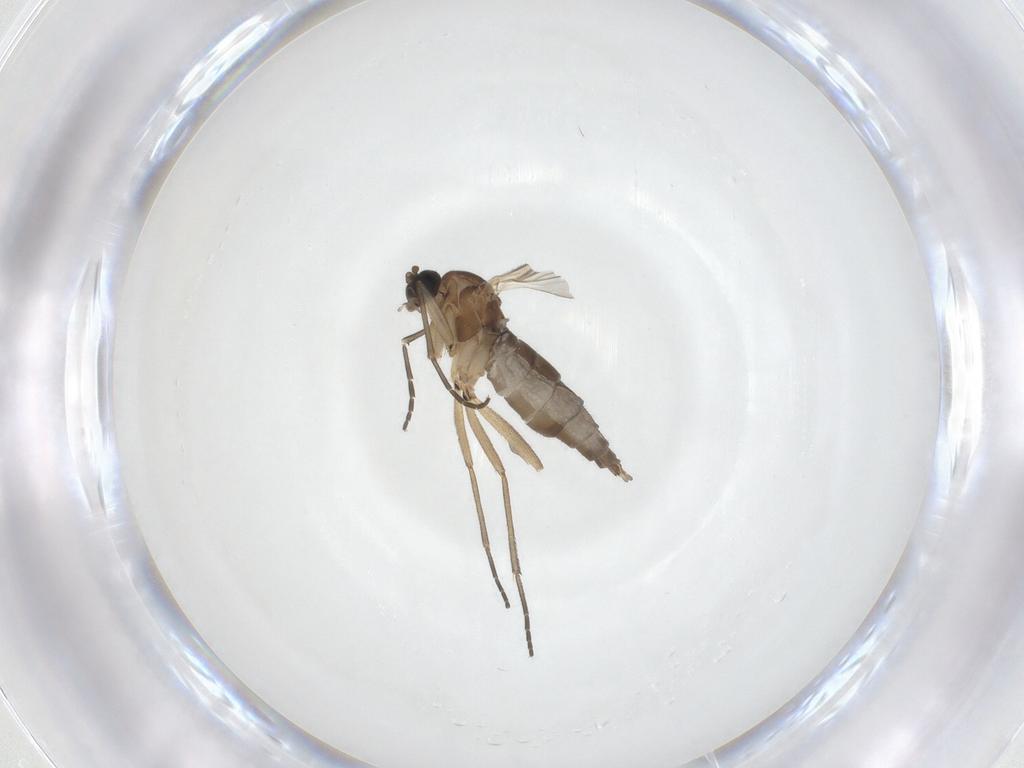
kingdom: Animalia
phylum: Arthropoda
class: Insecta
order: Diptera
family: Sciaridae
